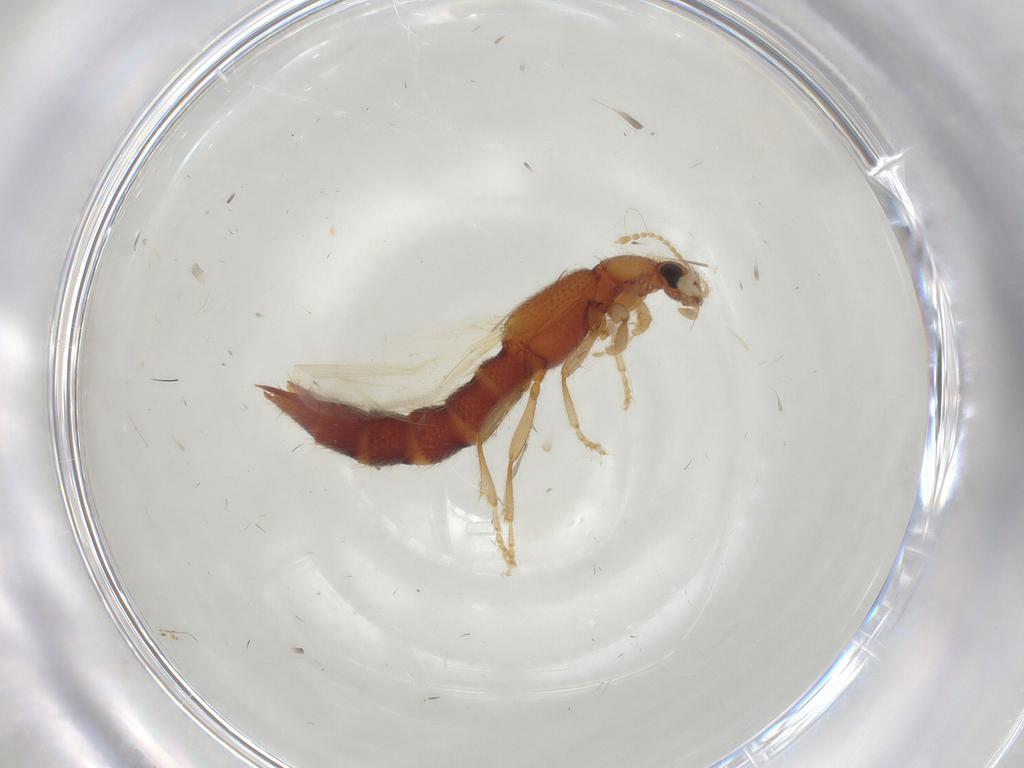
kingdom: Animalia
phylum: Arthropoda
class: Insecta
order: Coleoptera
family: Staphylinidae
